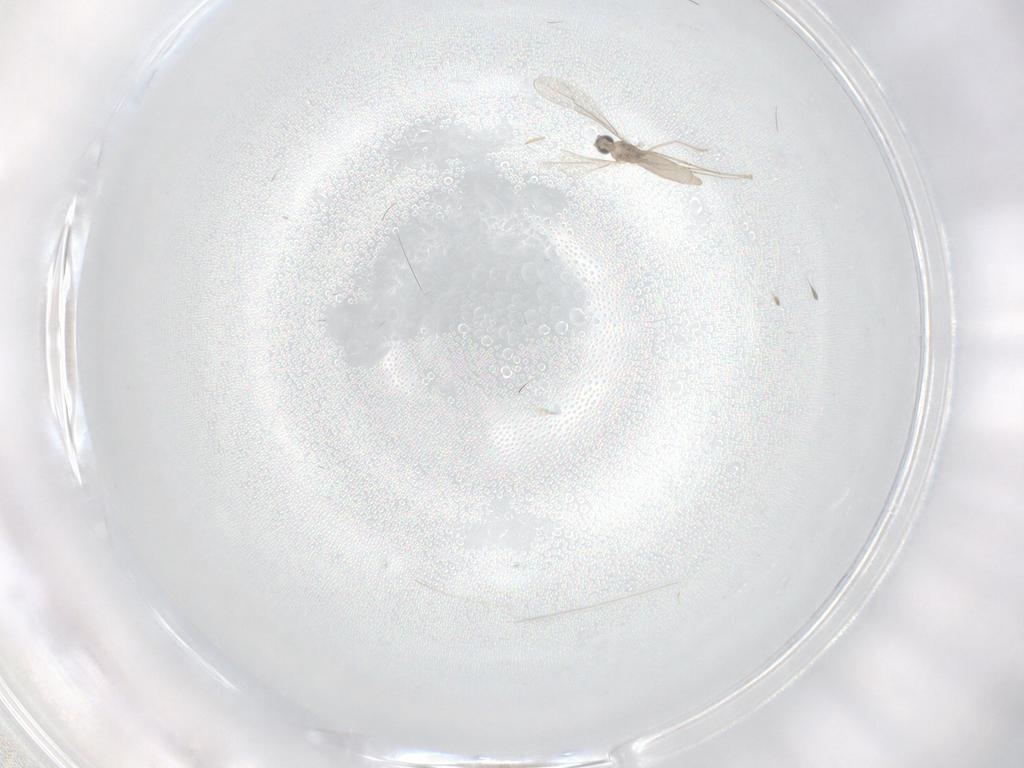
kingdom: Animalia
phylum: Arthropoda
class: Insecta
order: Diptera
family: Cecidomyiidae
